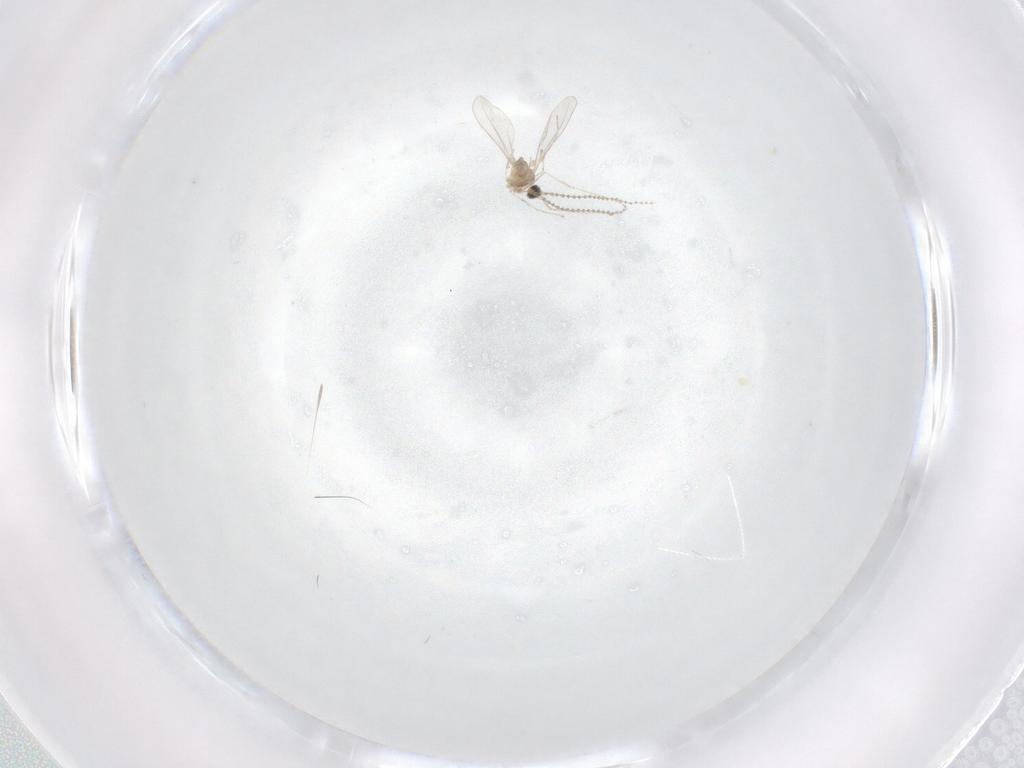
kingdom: Animalia
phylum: Arthropoda
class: Insecta
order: Diptera
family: Cecidomyiidae
